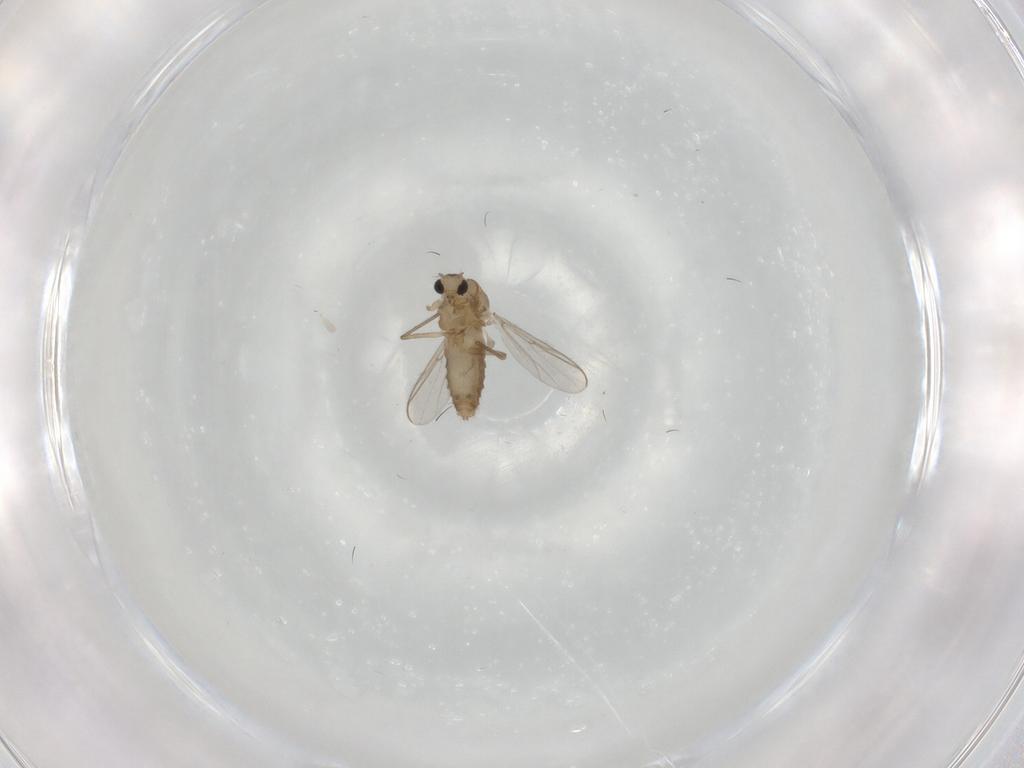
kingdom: Animalia
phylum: Arthropoda
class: Insecta
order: Diptera
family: Chironomidae
